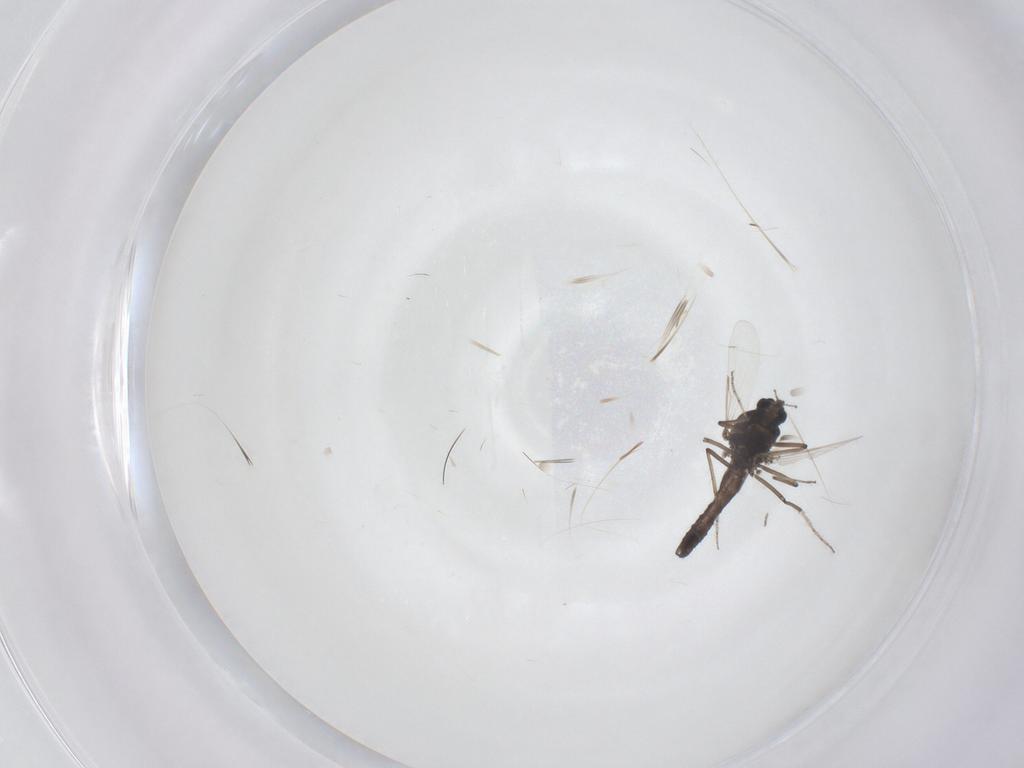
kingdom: Animalia
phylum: Arthropoda
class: Insecta
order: Diptera
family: Ceratopogonidae
